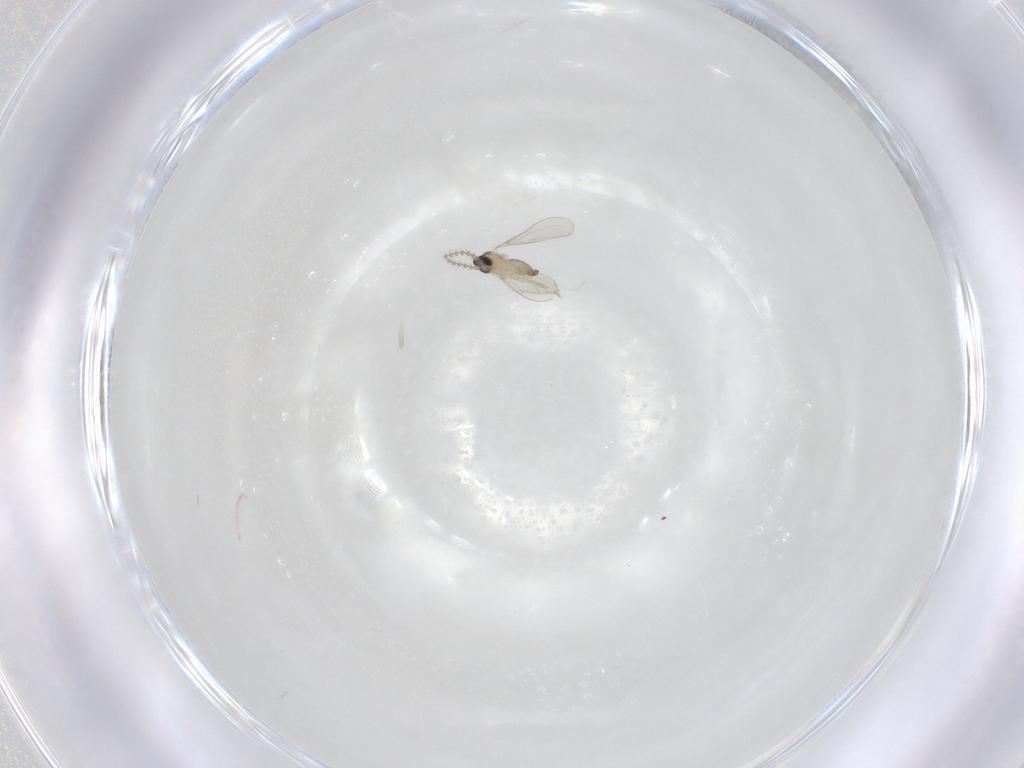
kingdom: Animalia
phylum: Arthropoda
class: Insecta
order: Diptera
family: Cecidomyiidae
